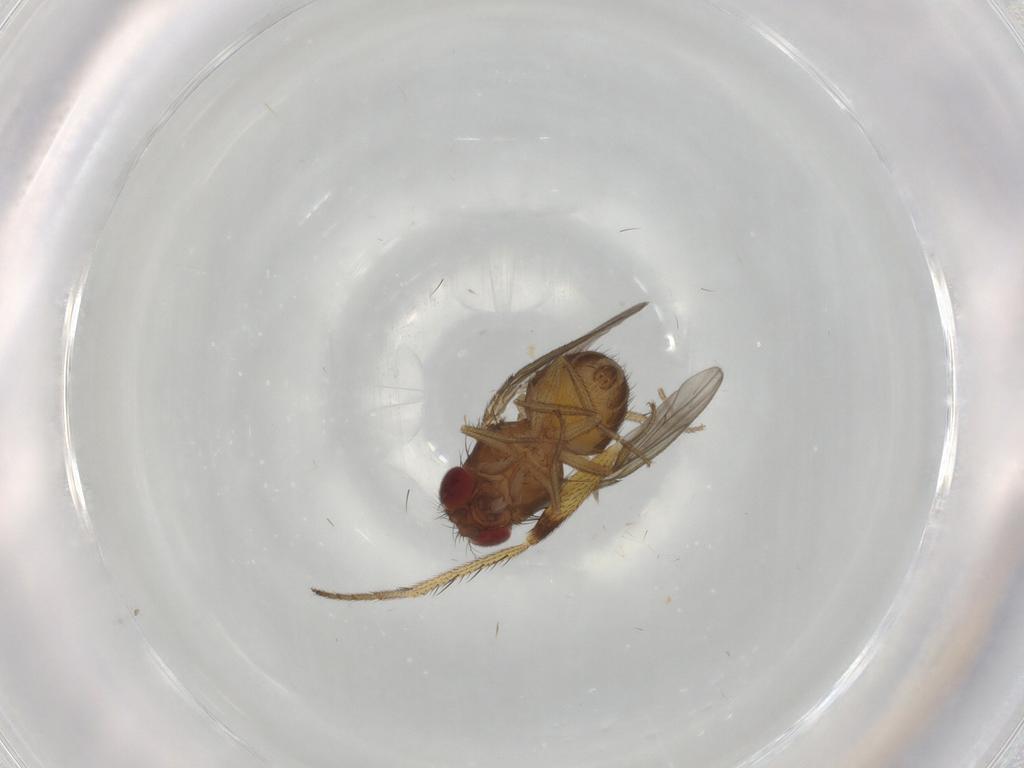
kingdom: Animalia
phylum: Arthropoda
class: Insecta
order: Diptera
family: Drosophilidae
